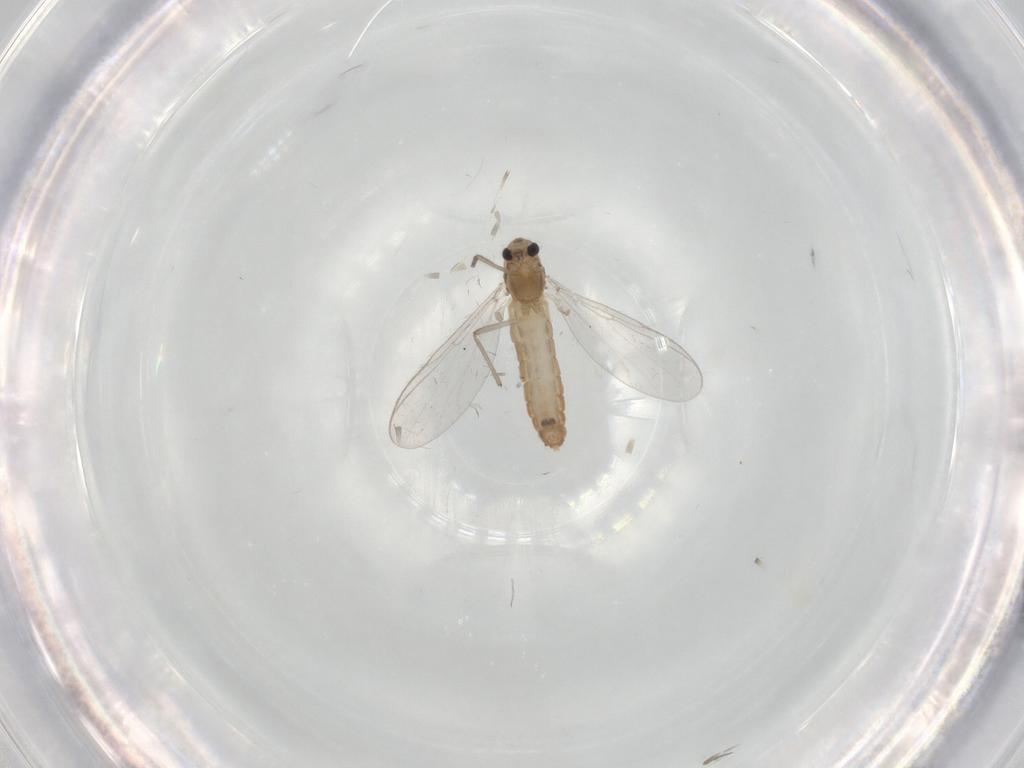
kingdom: Animalia
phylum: Arthropoda
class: Insecta
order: Diptera
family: Chironomidae
